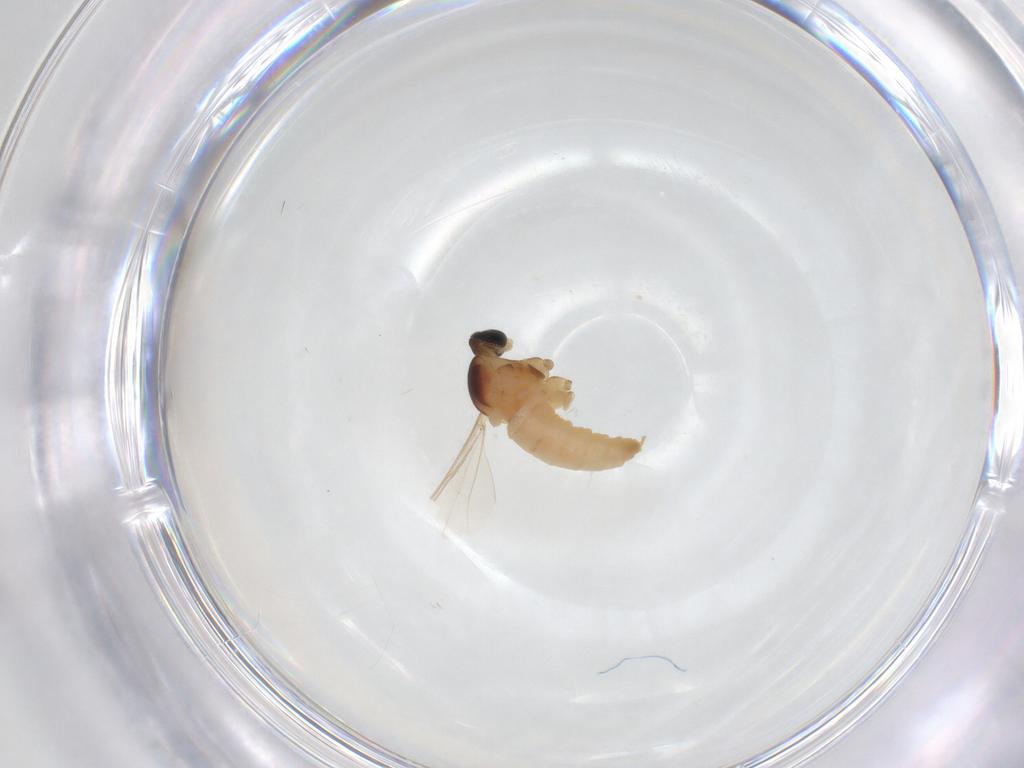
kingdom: Animalia
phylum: Arthropoda
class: Insecta
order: Diptera
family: Cecidomyiidae
